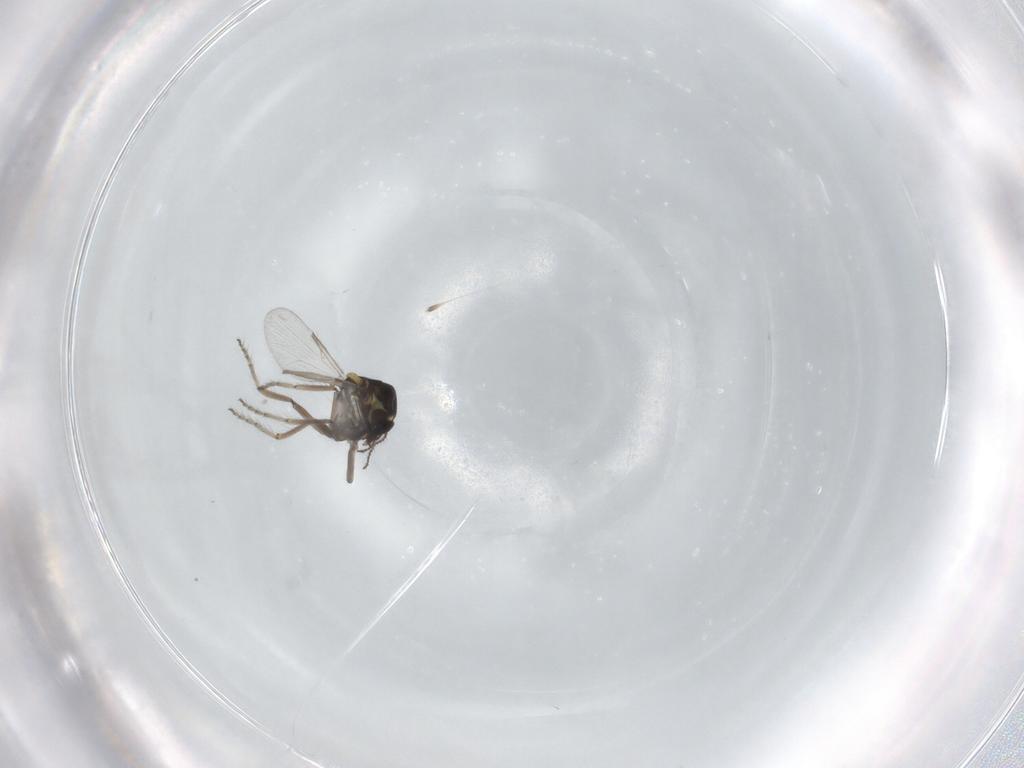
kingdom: Animalia
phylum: Arthropoda
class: Insecta
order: Diptera
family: Ceratopogonidae
